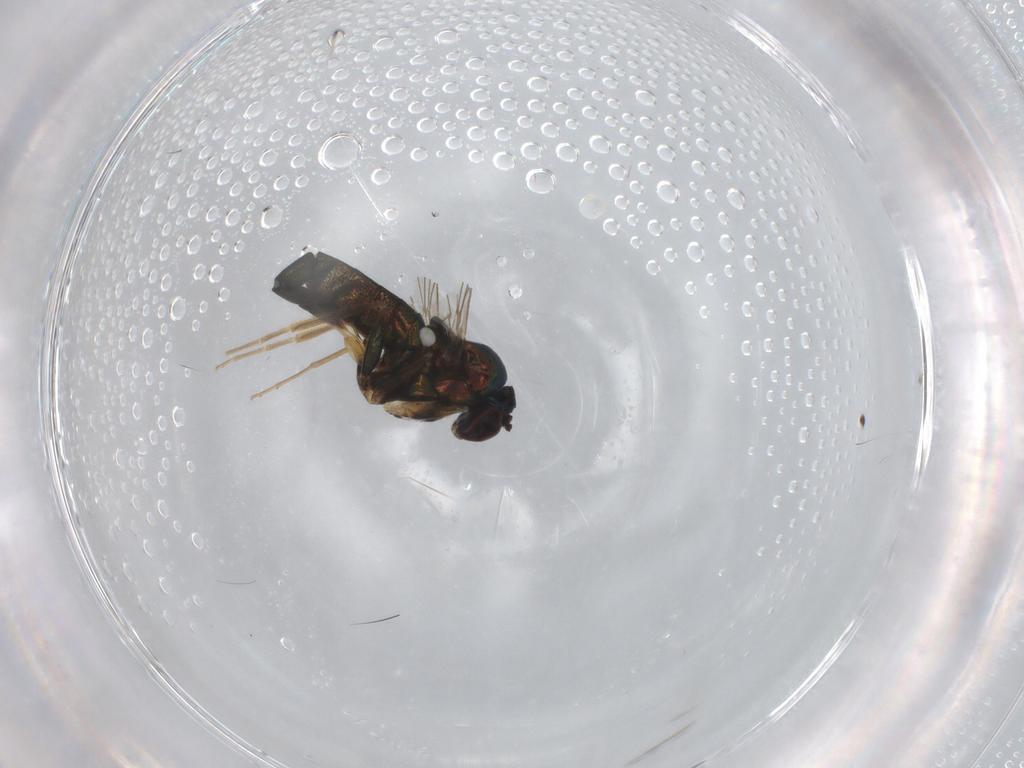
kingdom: Animalia
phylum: Arthropoda
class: Insecta
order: Diptera
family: Dolichopodidae
